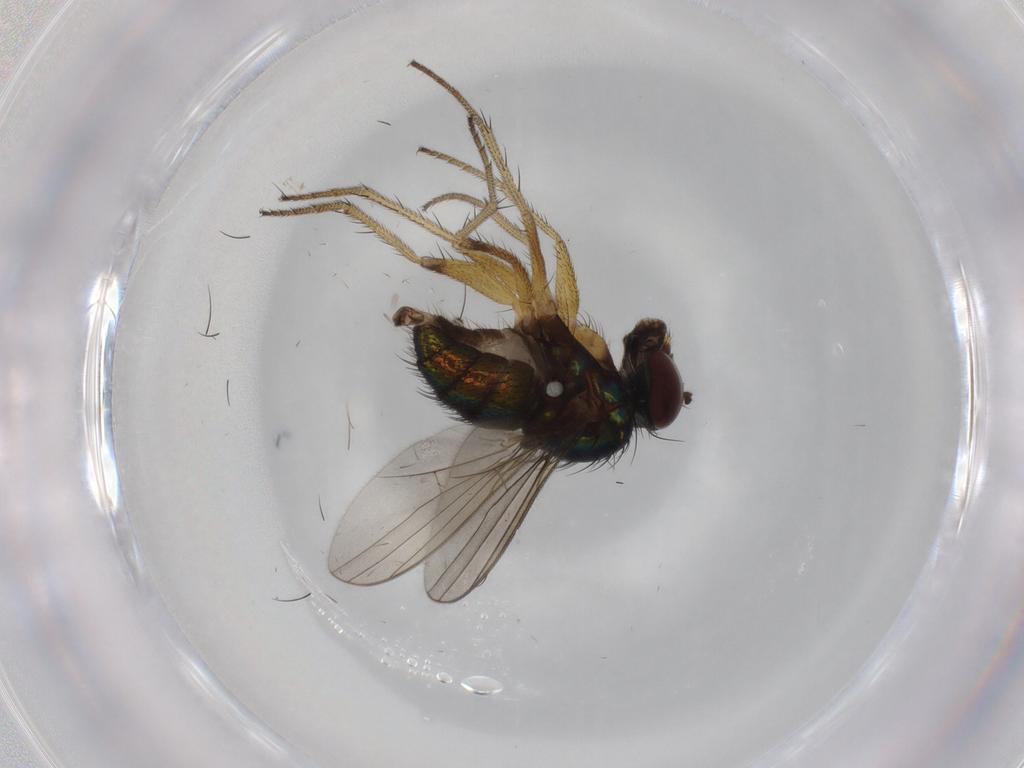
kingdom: Animalia
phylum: Arthropoda
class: Insecta
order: Diptera
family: Dolichopodidae
